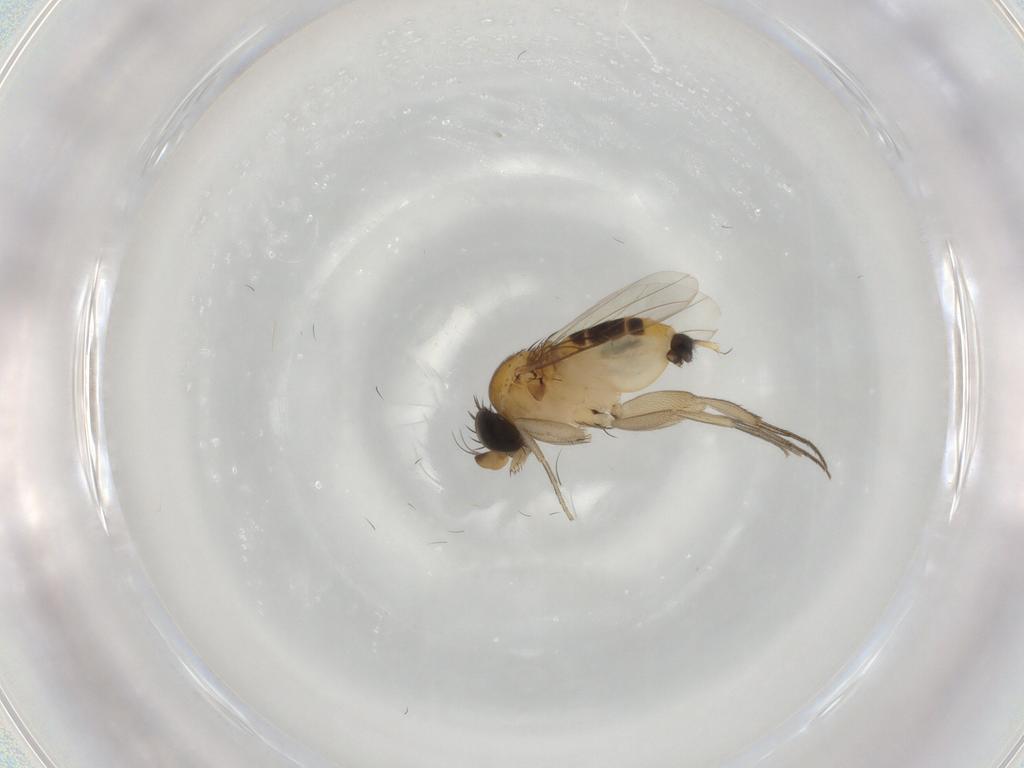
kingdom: Animalia
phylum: Arthropoda
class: Insecta
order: Diptera
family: Phoridae
